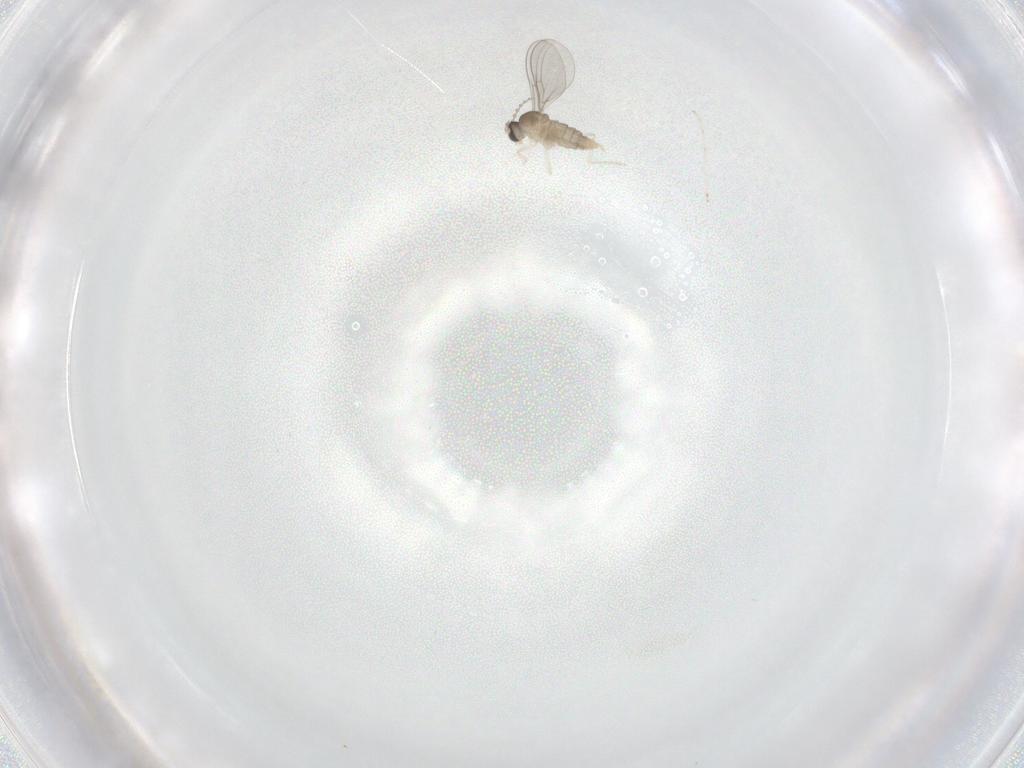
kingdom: Animalia
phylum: Arthropoda
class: Insecta
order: Diptera
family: Cecidomyiidae
